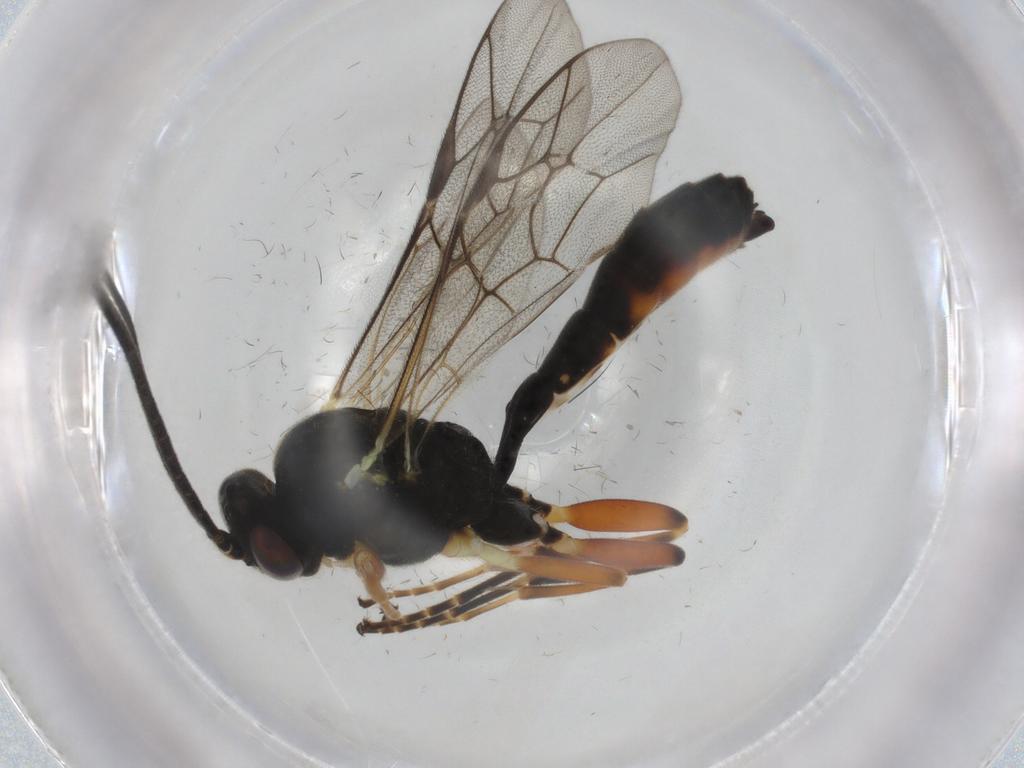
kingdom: Animalia
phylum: Arthropoda
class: Insecta
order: Hymenoptera
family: Ichneumonidae
